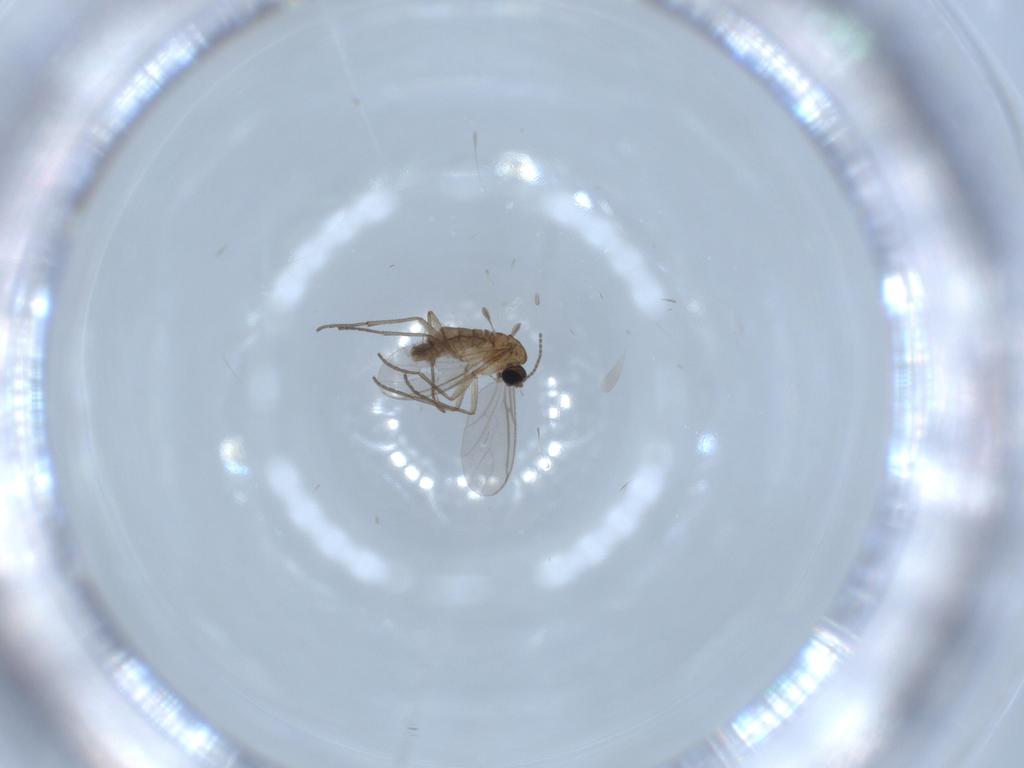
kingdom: Animalia
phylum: Arthropoda
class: Insecta
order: Diptera
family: Sciaridae
